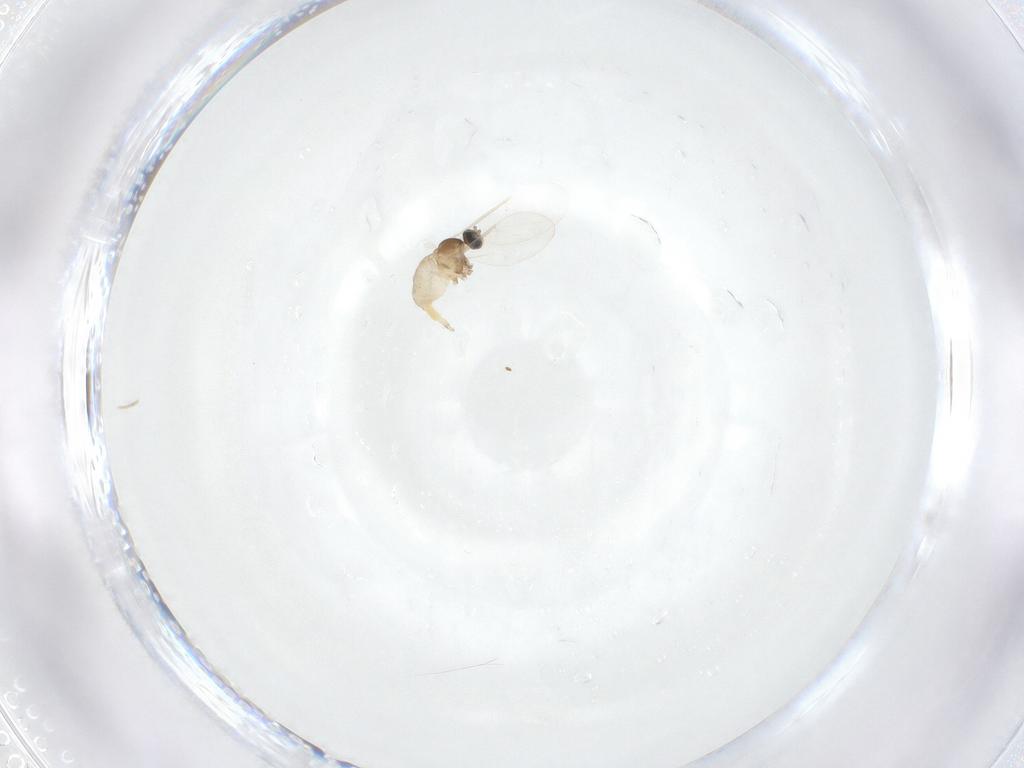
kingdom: Animalia
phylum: Arthropoda
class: Insecta
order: Diptera
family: Cecidomyiidae
